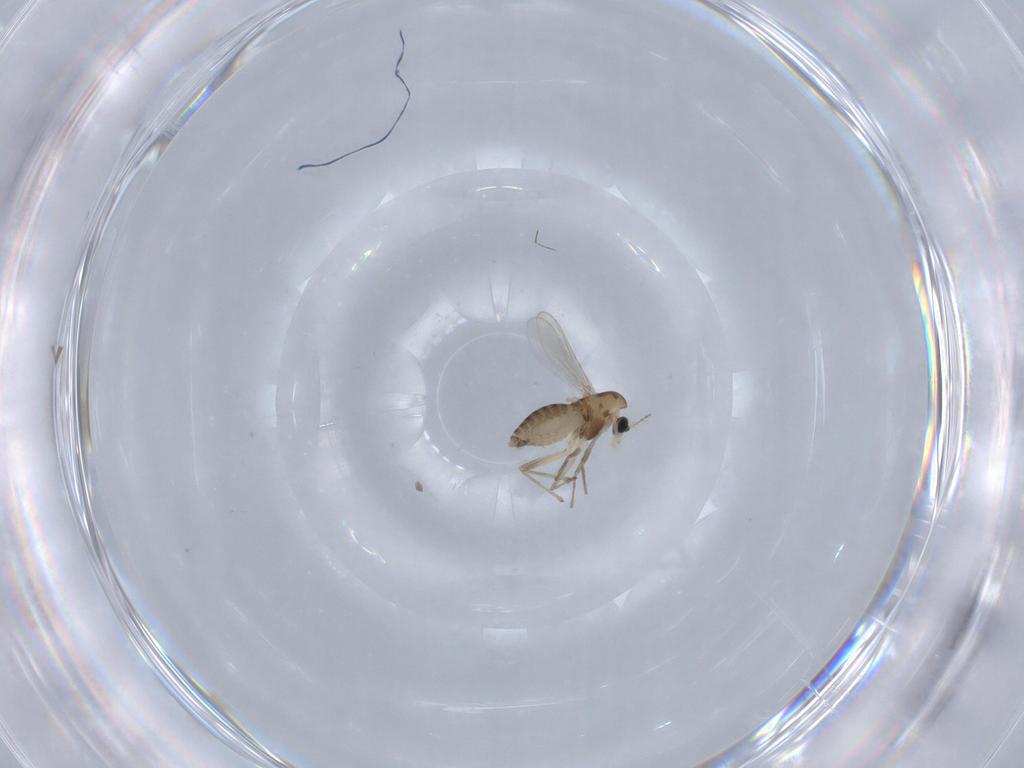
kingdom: Animalia
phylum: Arthropoda
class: Insecta
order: Diptera
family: Chironomidae
